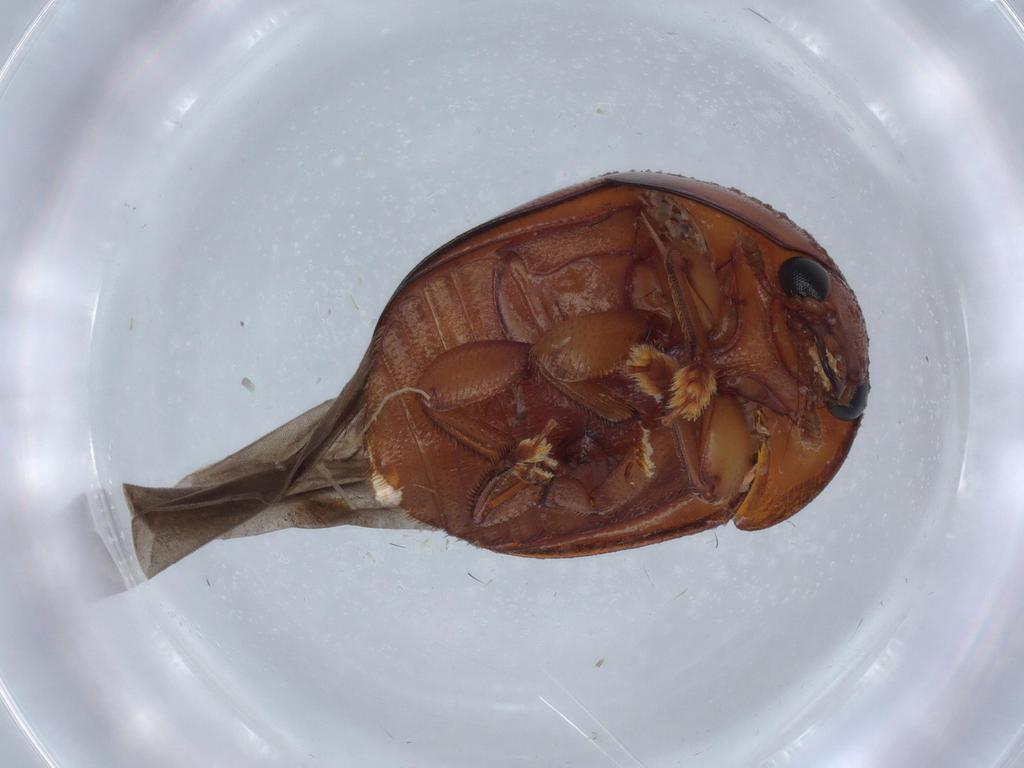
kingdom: Animalia
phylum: Arthropoda
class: Insecta
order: Coleoptera
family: Nitidulidae
